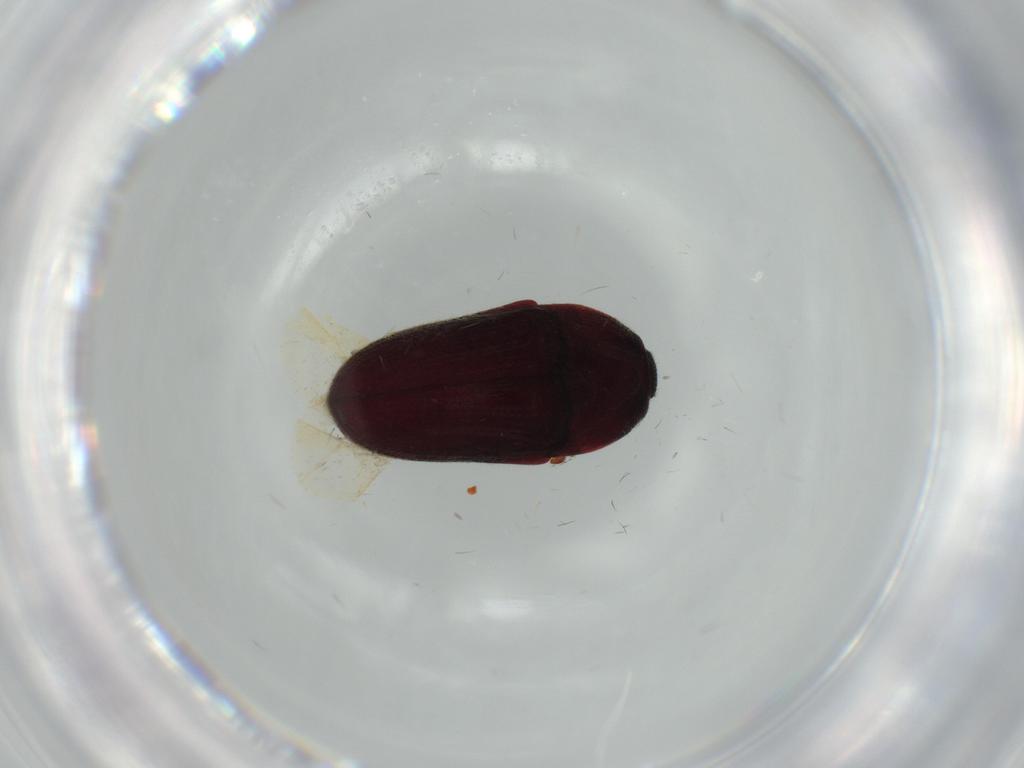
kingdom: Animalia
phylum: Arthropoda
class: Insecta
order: Coleoptera
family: Throscidae
